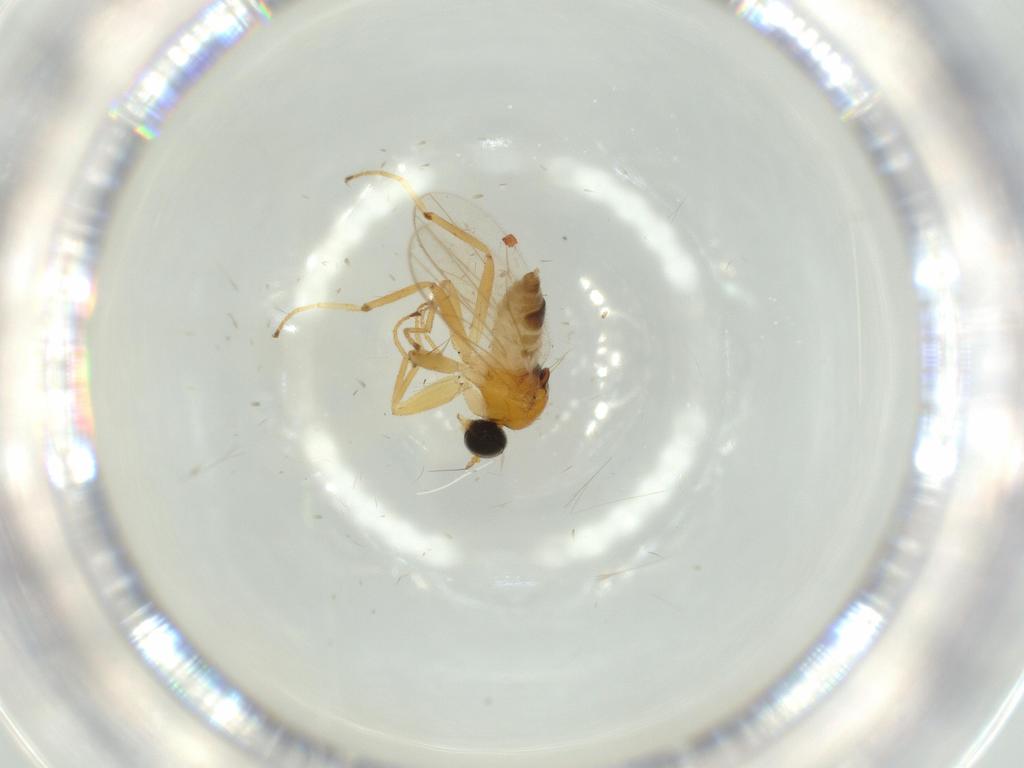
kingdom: Animalia
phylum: Arthropoda
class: Insecta
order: Diptera
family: Hybotidae
